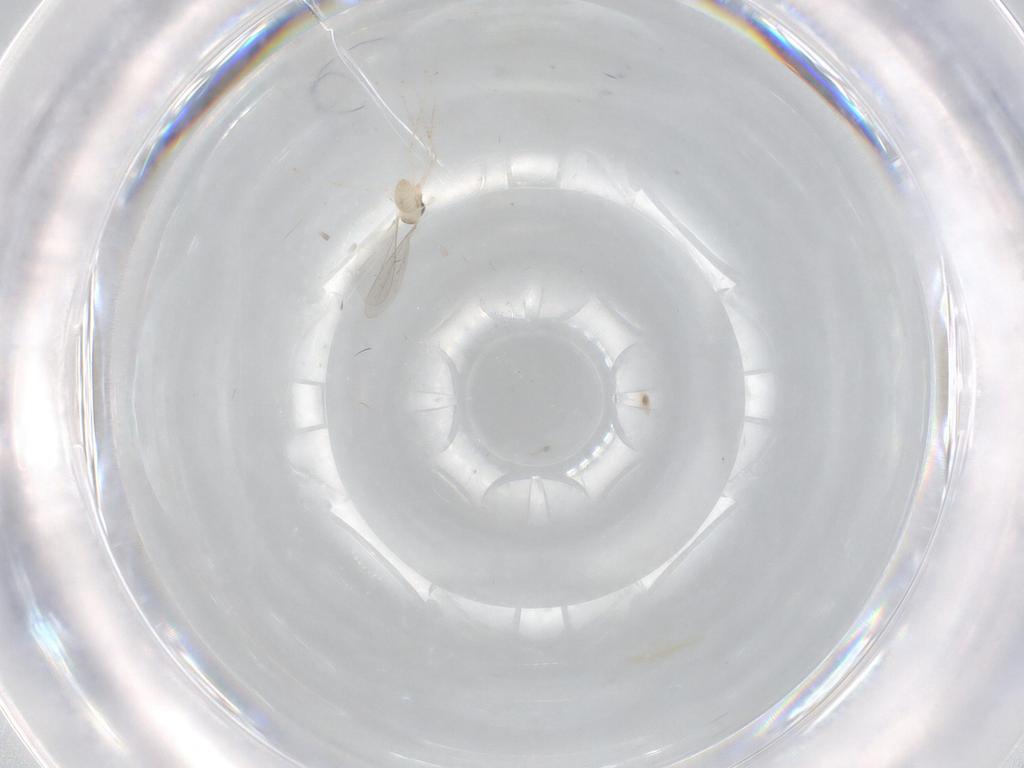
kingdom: Animalia
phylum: Arthropoda
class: Insecta
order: Diptera
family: Cecidomyiidae
